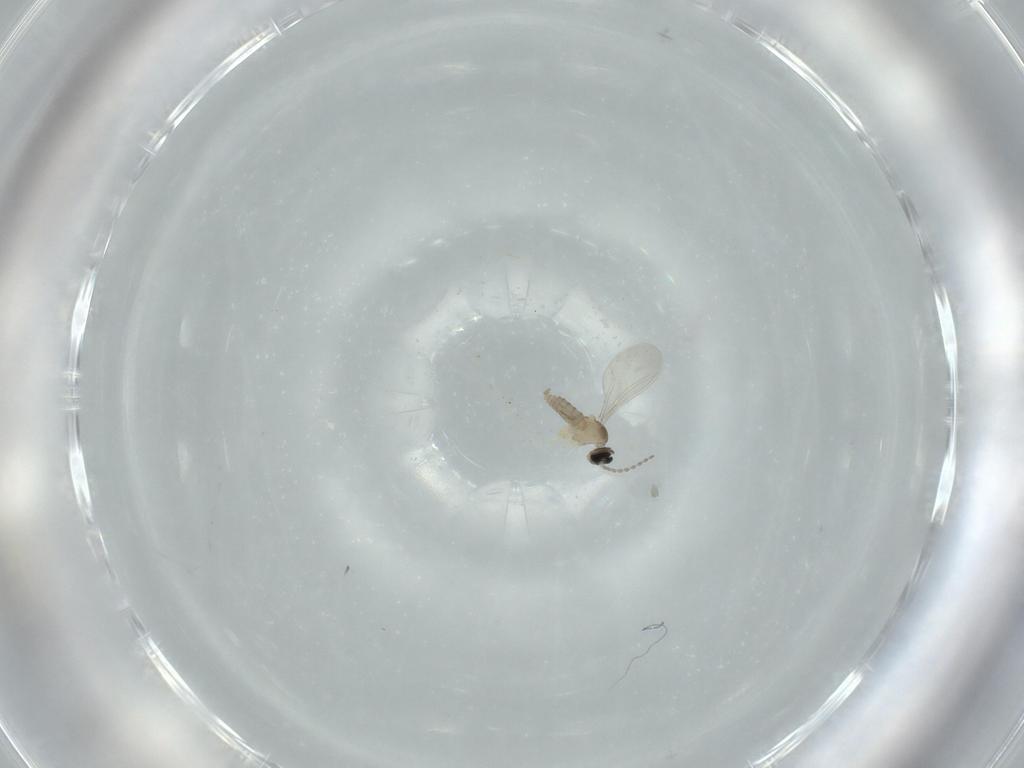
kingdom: Animalia
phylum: Arthropoda
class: Insecta
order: Diptera
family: Cecidomyiidae
